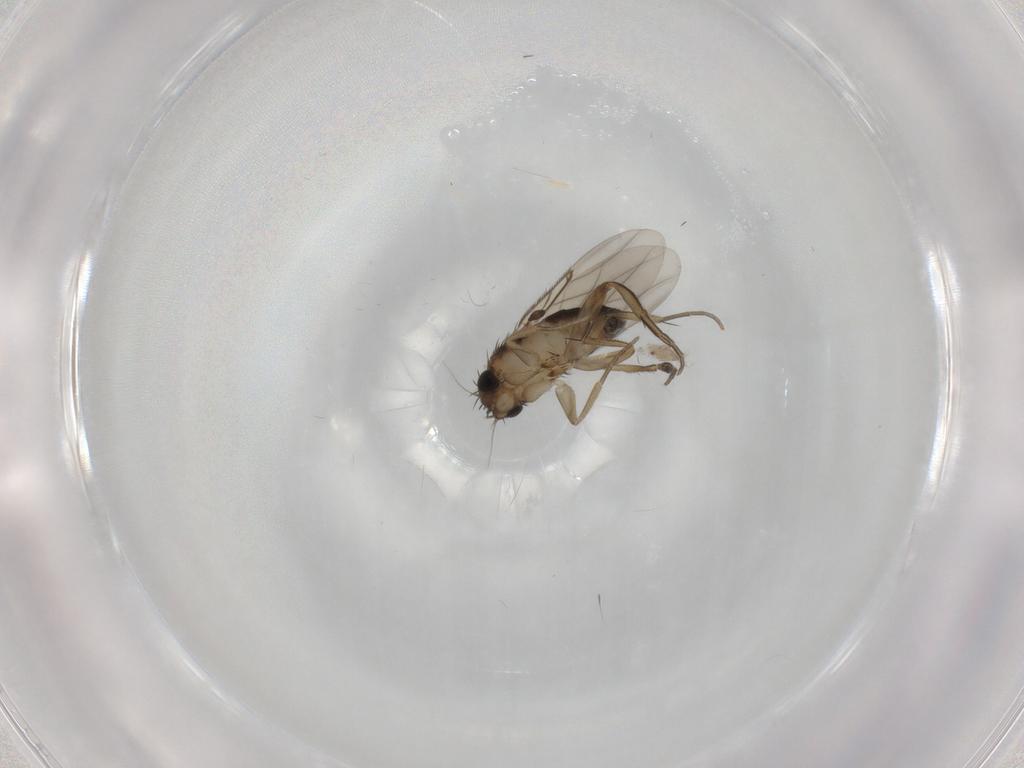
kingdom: Animalia
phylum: Arthropoda
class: Insecta
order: Diptera
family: Phoridae
